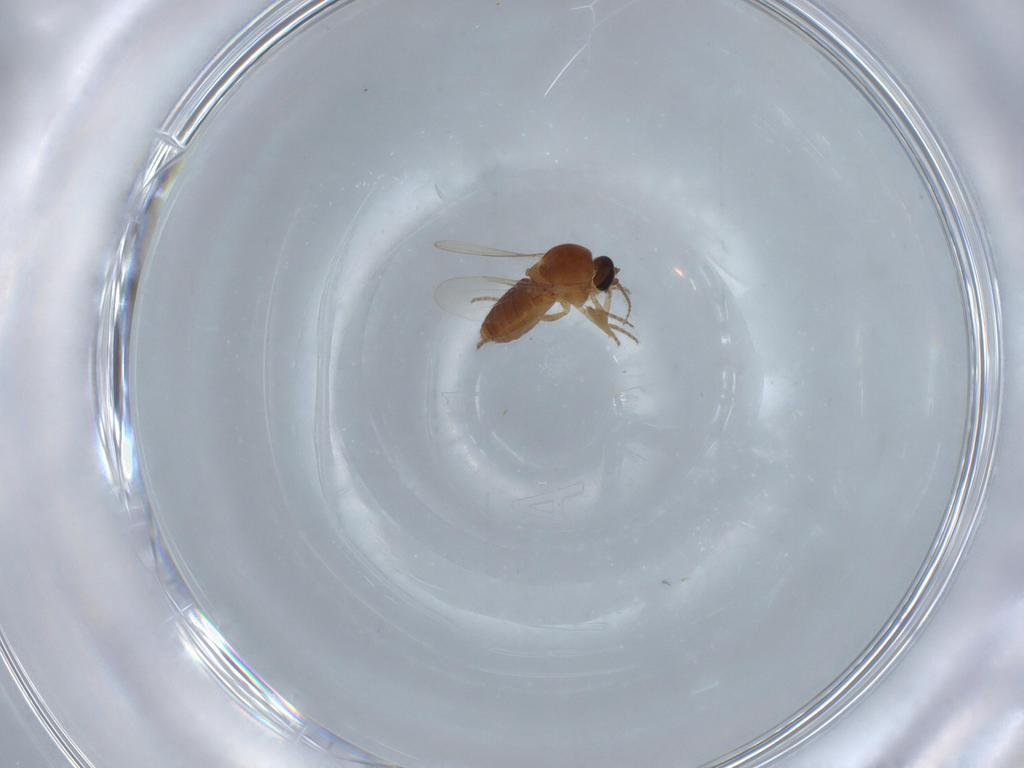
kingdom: Animalia
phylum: Arthropoda
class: Insecta
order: Diptera
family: Ceratopogonidae
